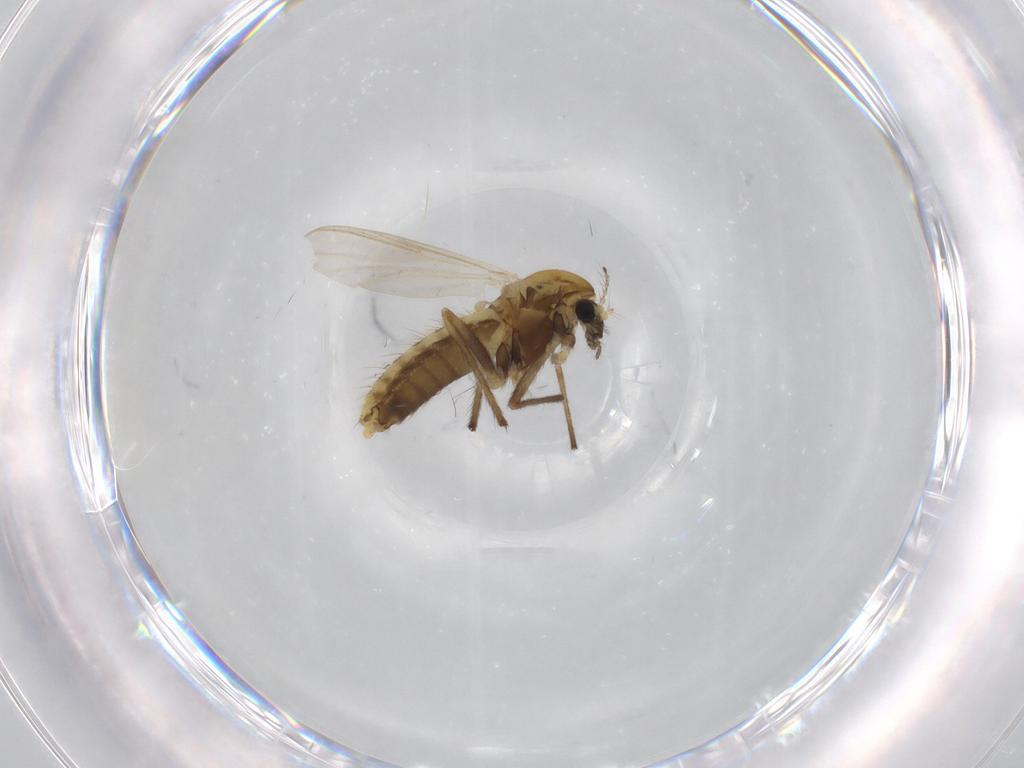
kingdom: Animalia
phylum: Arthropoda
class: Insecta
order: Diptera
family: Chironomidae
